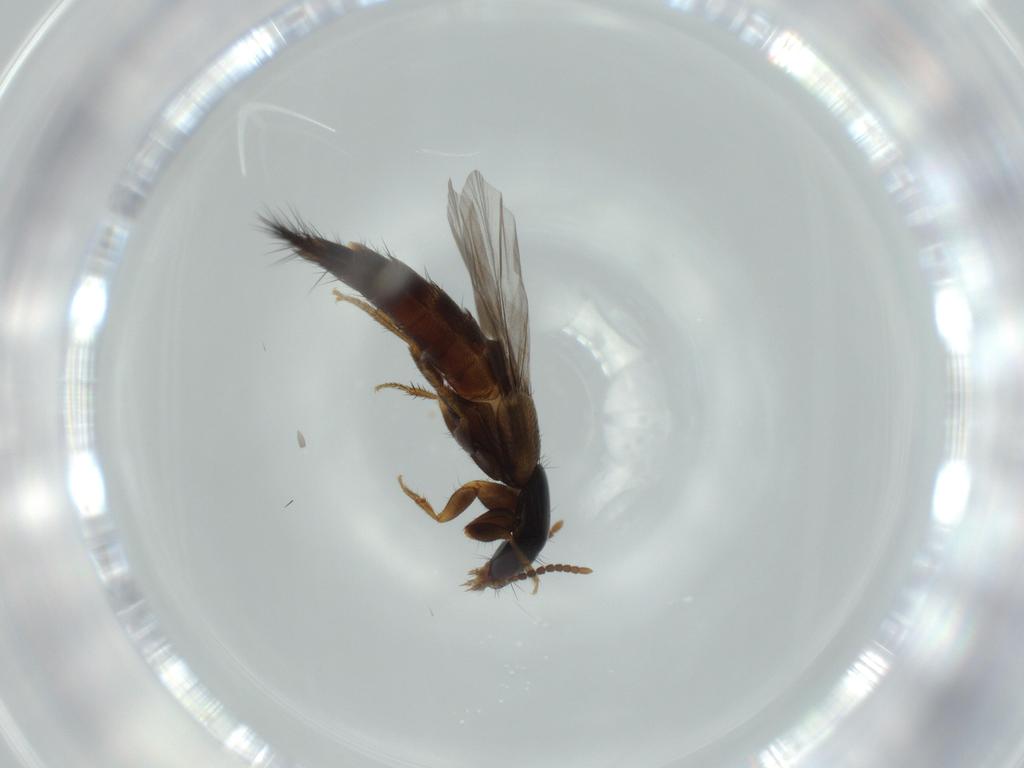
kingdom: Animalia
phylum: Arthropoda
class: Insecta
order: Coleoptera
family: Staphylinidae
